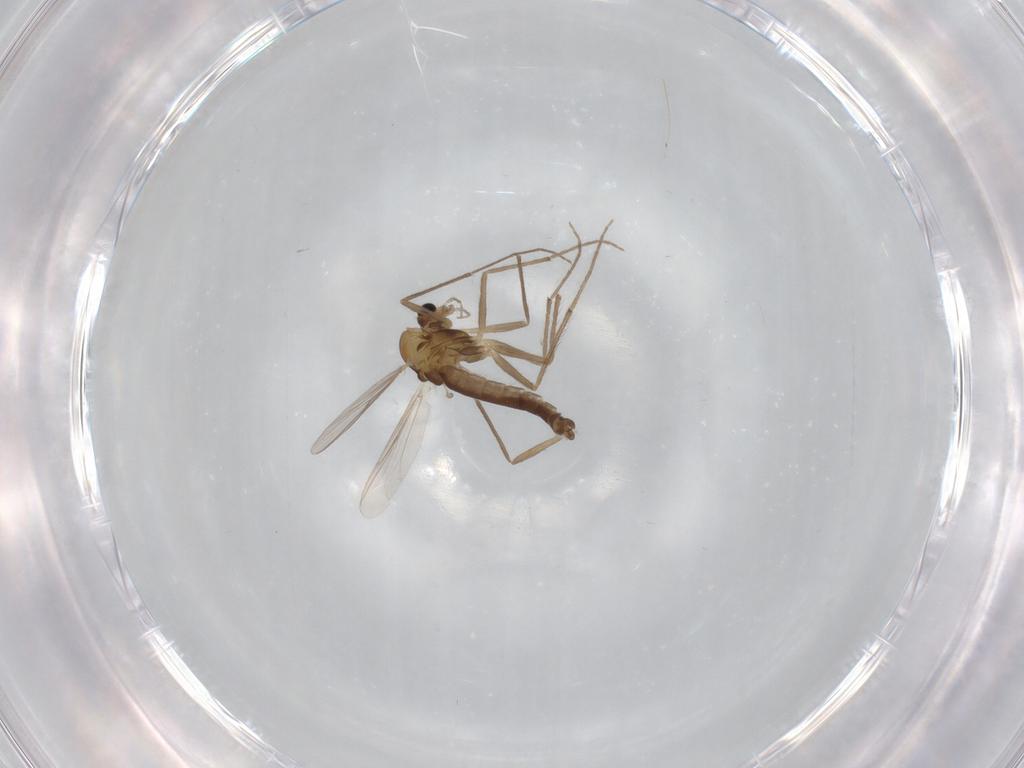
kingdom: Animalia
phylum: Arthropoda
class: Insecta
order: Diptera
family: Chironomidae
